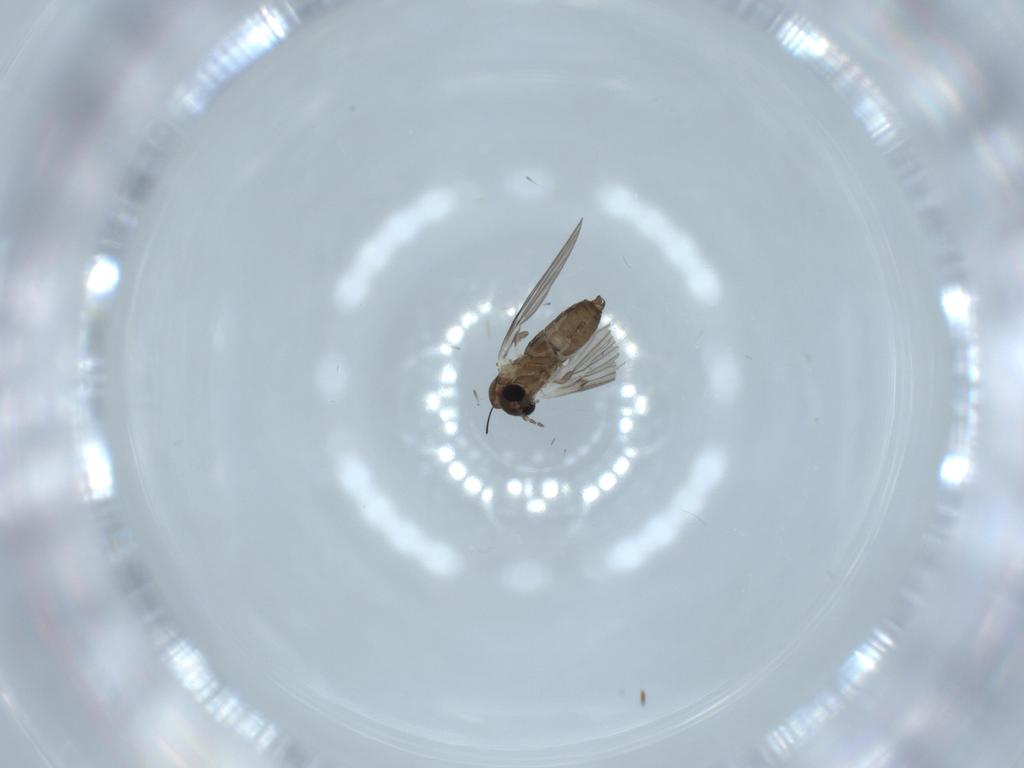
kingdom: Animalia
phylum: Arthropoda
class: Insecta
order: Diptera
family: Psychodidae
